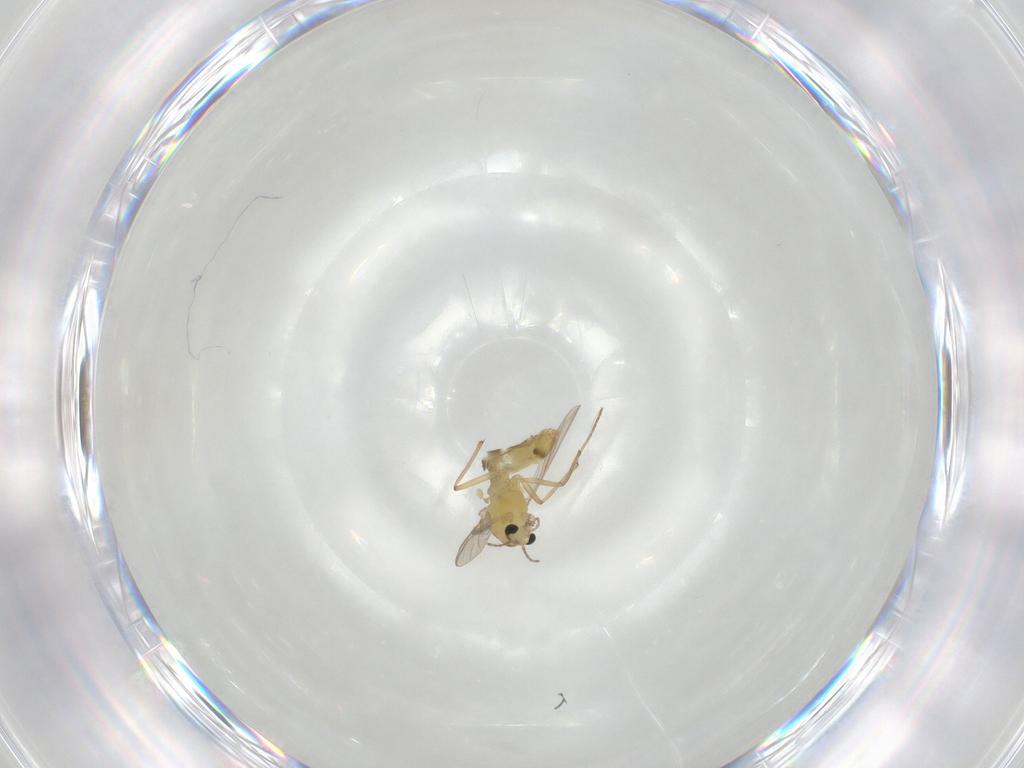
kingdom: Animalia
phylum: Arthropoda
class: Insecta
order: Diptera
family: Chironomidae
